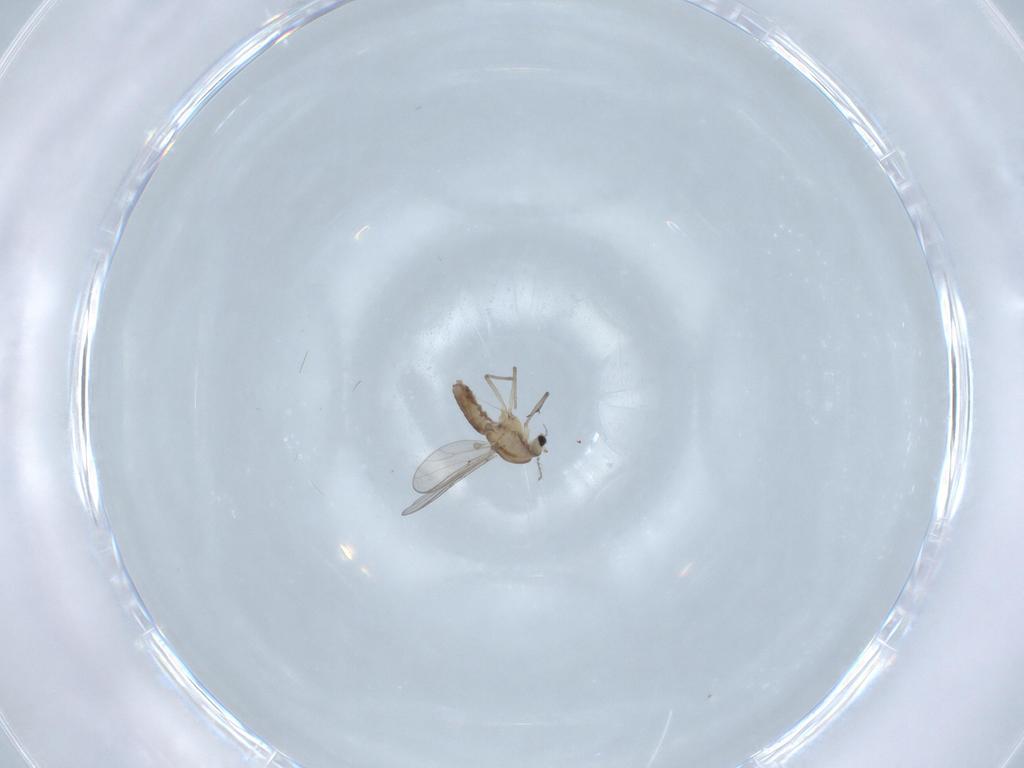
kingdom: Animalia
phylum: Arthropoda
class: Insecta
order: Diptera
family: Chironomidae
